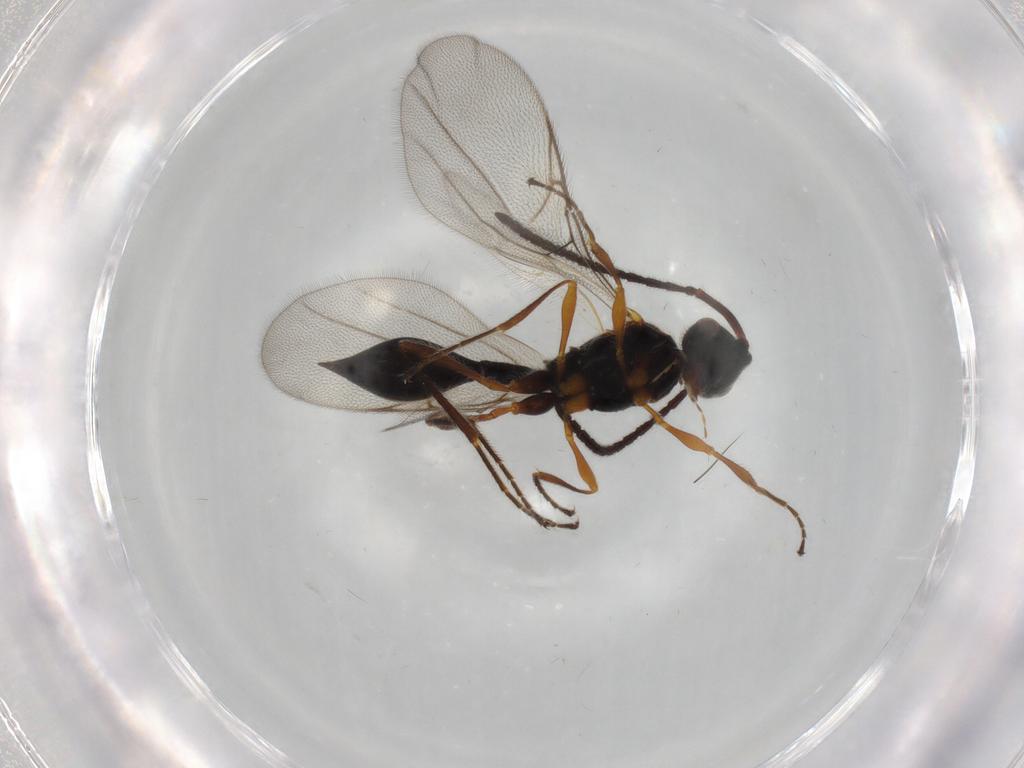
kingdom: Animalia
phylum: Arthropoda
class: Insecta
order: Hymenoptera
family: Diapriidae
